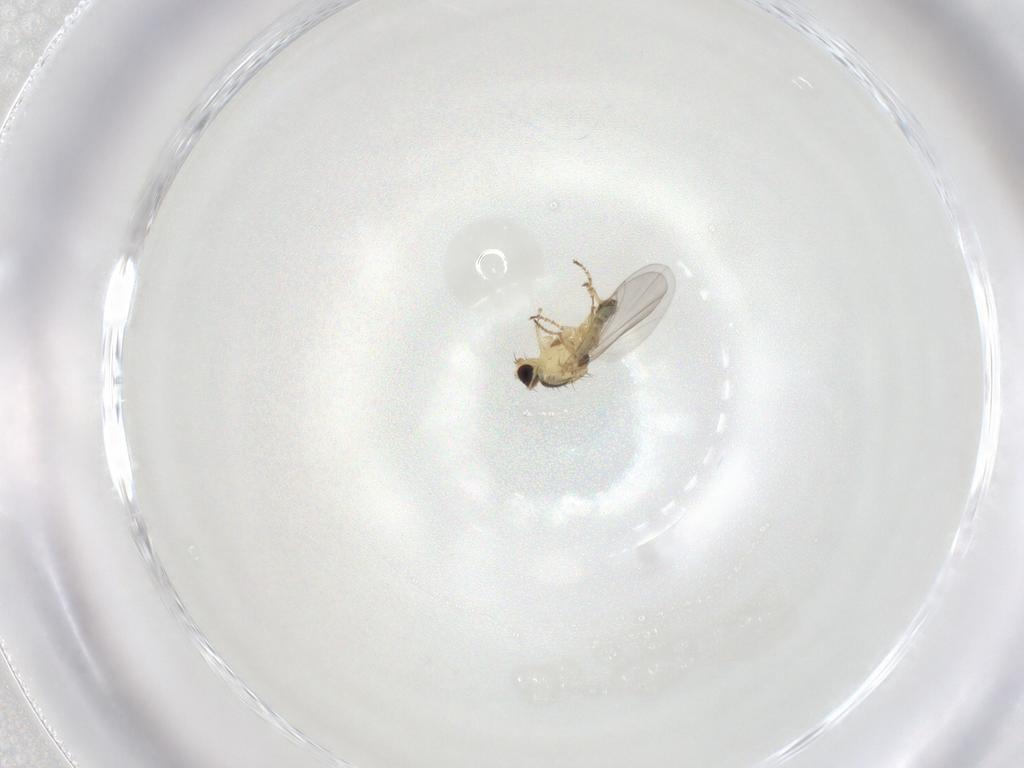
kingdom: Animalia
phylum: Arthropoda
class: Insecta
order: Diptera
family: Agromyzidae
